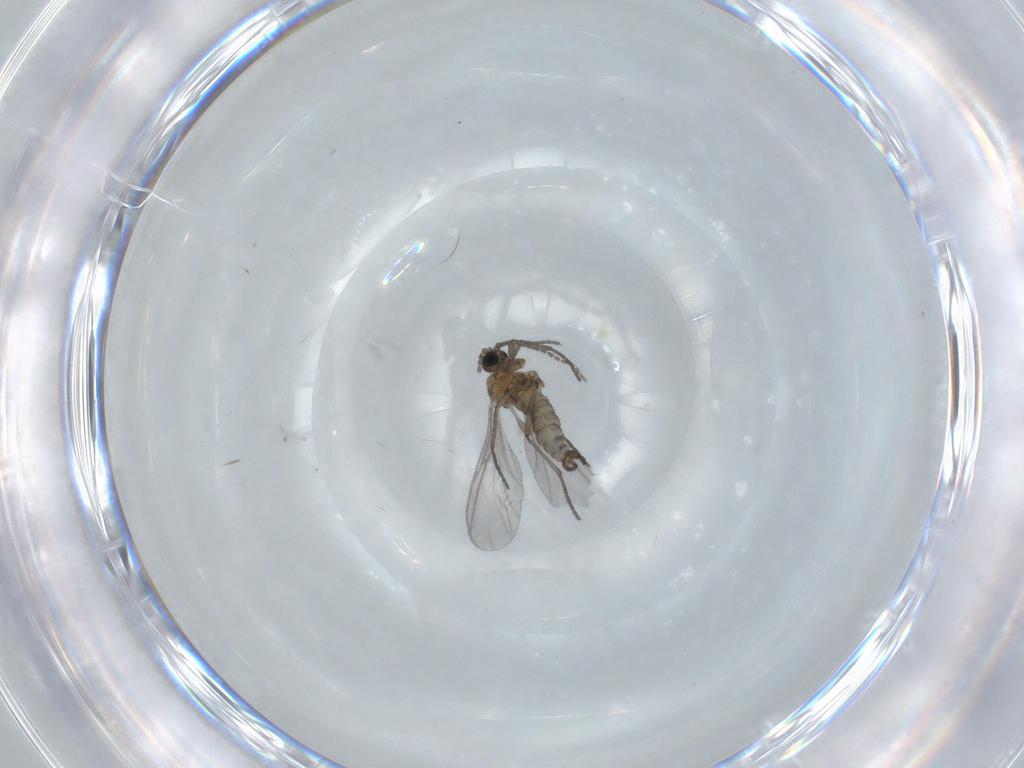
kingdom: Animalia
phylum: Arthropoda
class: Insecta
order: Diptera
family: Sciaridae
